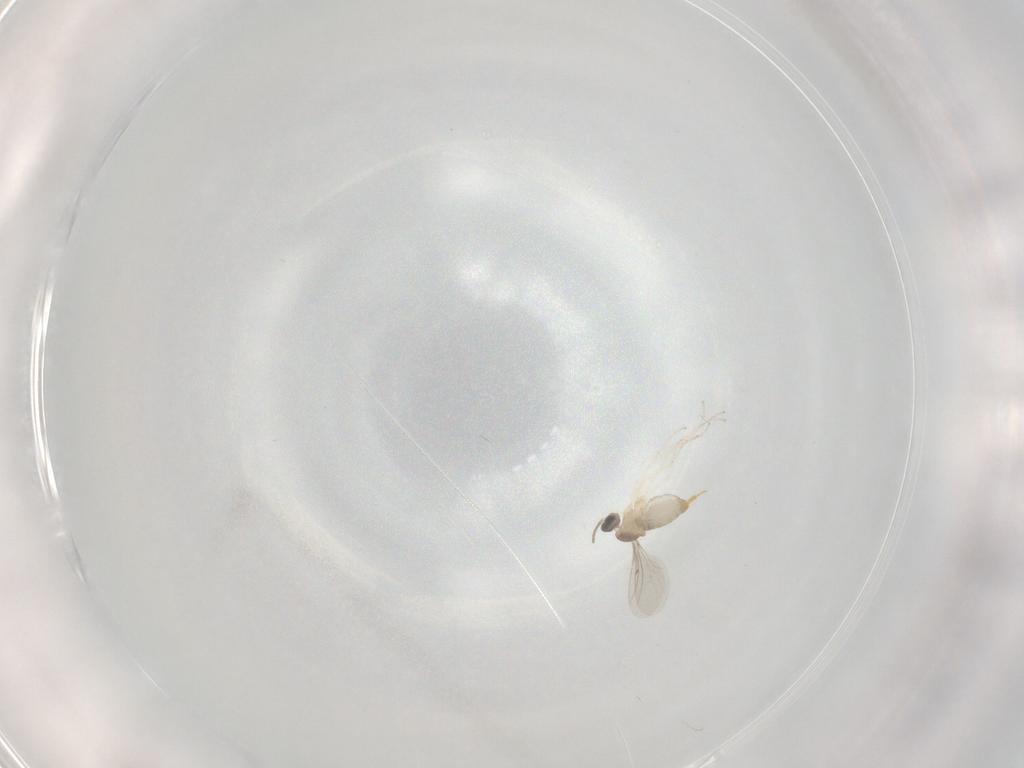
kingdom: Animalia
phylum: Arthropoda
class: Insecta
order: Diptera
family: Cecidomyiidae
